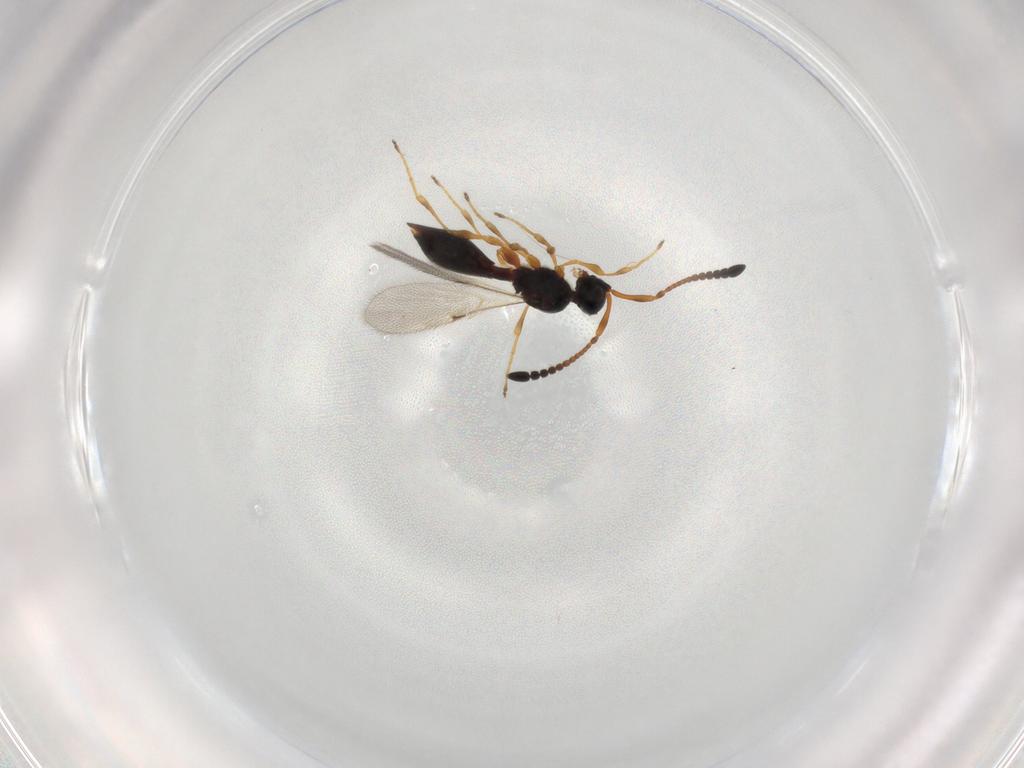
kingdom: Animalia
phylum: Arthropoda
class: Insecta
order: Hymenoptera
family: Diapriidae
